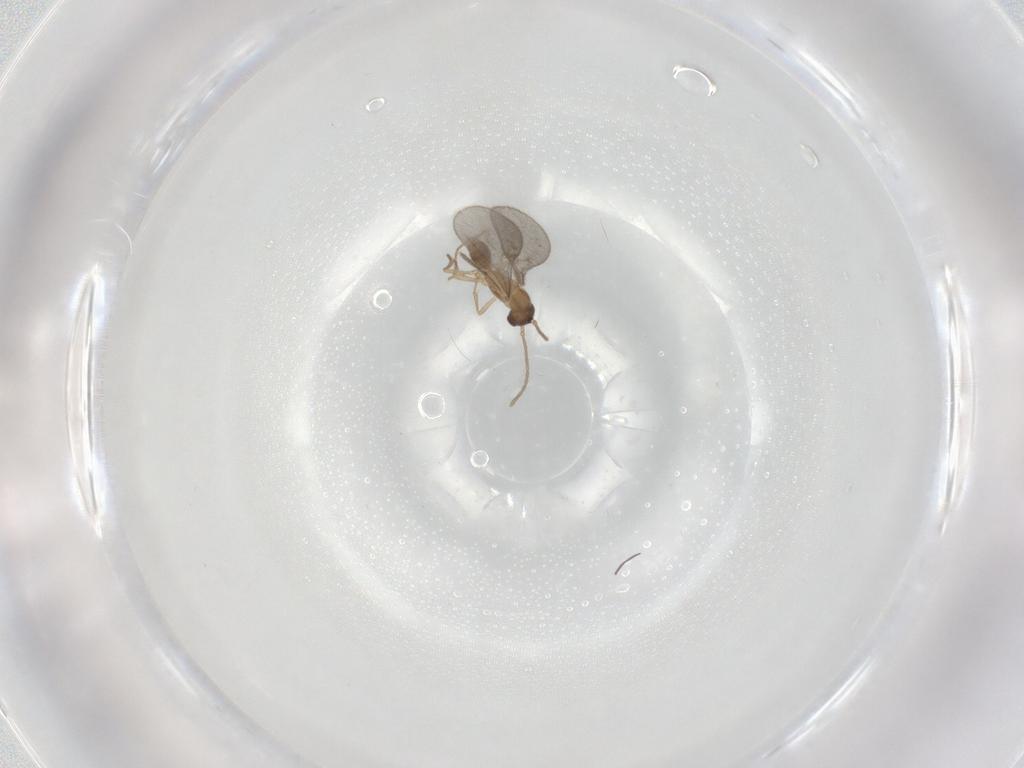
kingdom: Animalia
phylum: Arthropoda
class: Insecta
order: Hymenoptera
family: Formicidae
